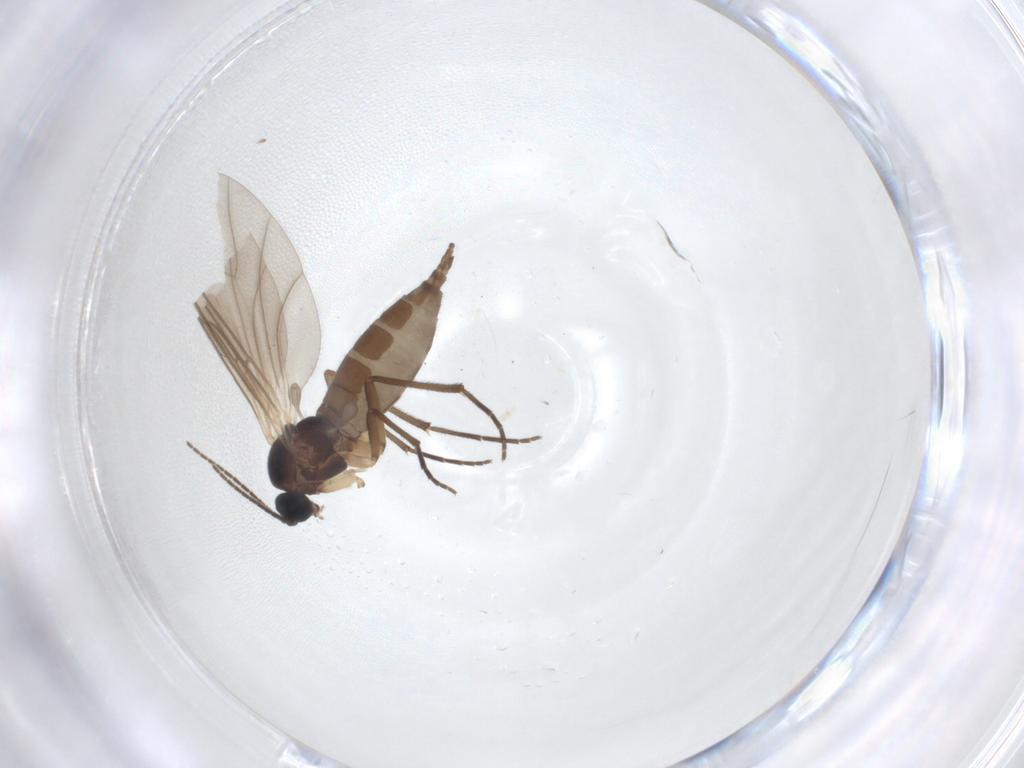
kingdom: Animalia
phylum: Arthropoda
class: Insecta
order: Diptera
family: Sciaridae
